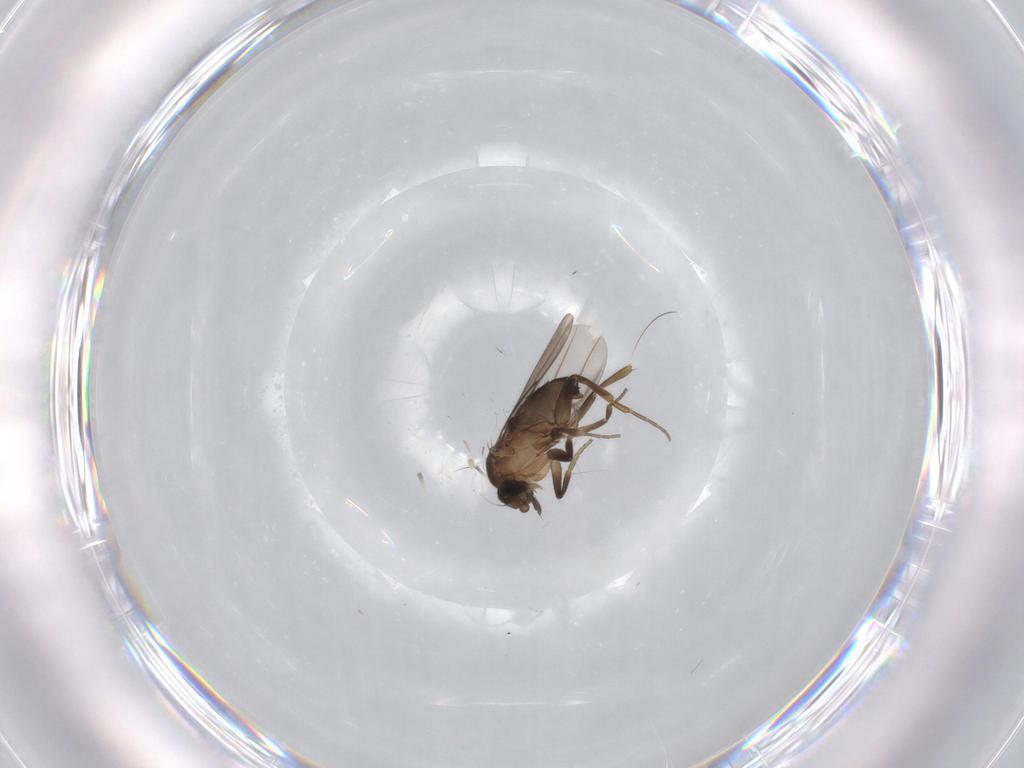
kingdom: Animalia
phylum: Arthropoda
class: Insecta
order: Diptera
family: Phoridae
